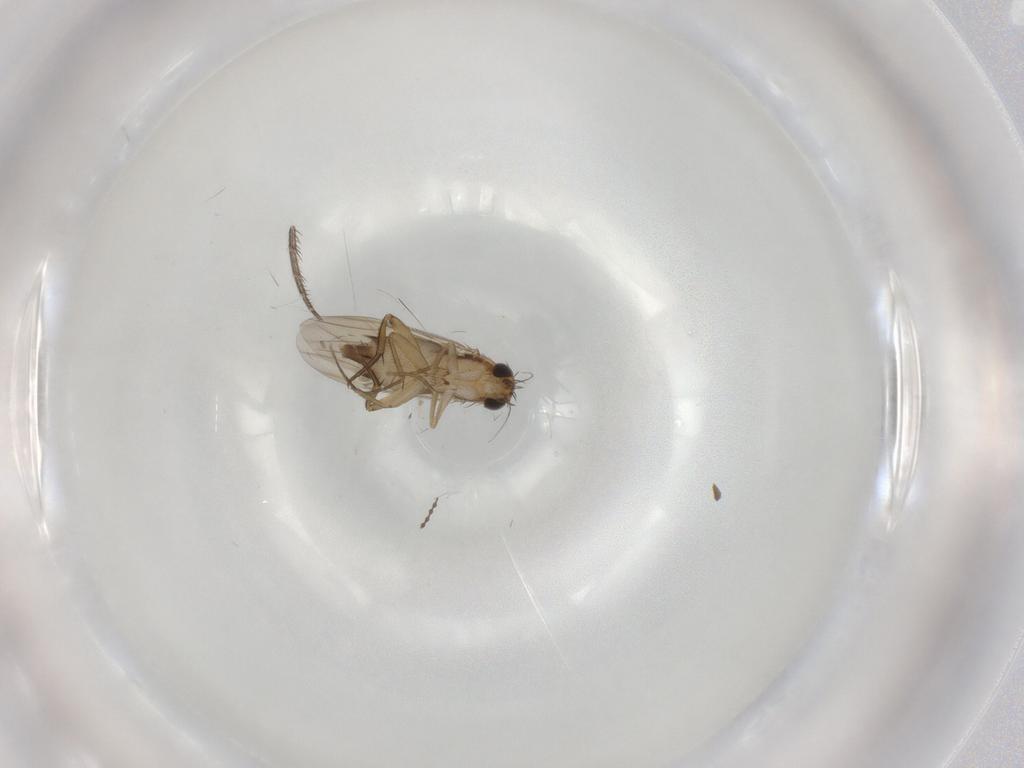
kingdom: Animalia
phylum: Arthropoda
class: Insecta
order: Diptera
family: Phoridae
